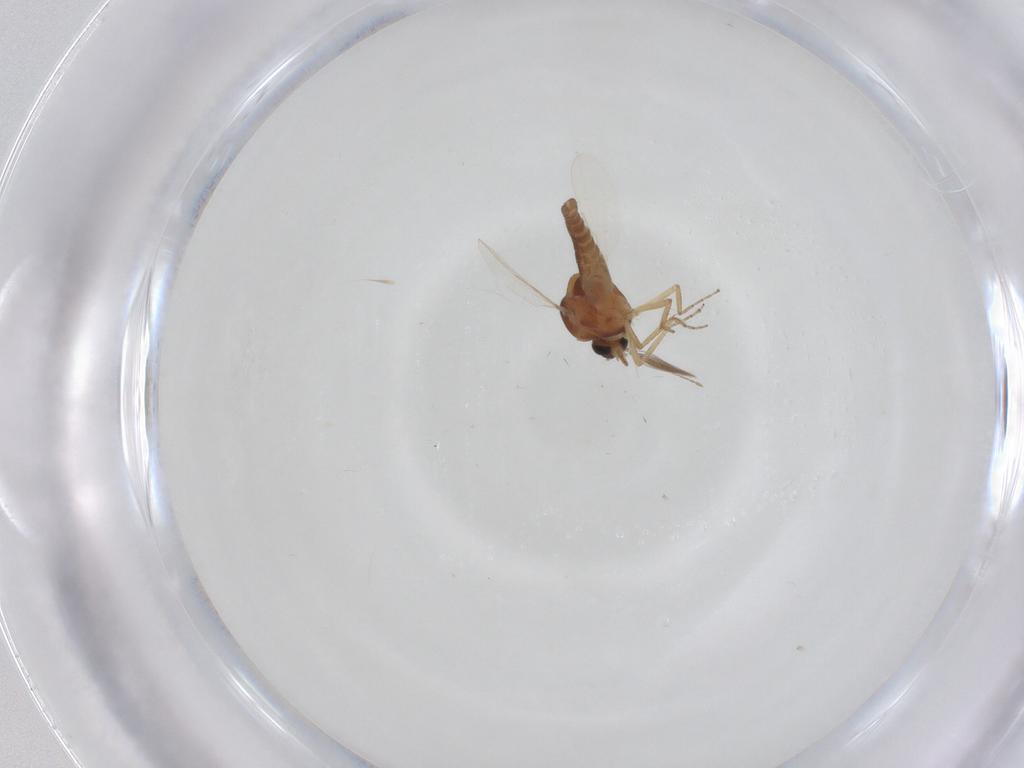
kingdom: Animalia
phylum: Arthropoda
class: Insecta
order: Diptera
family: Ceratopogonidae
